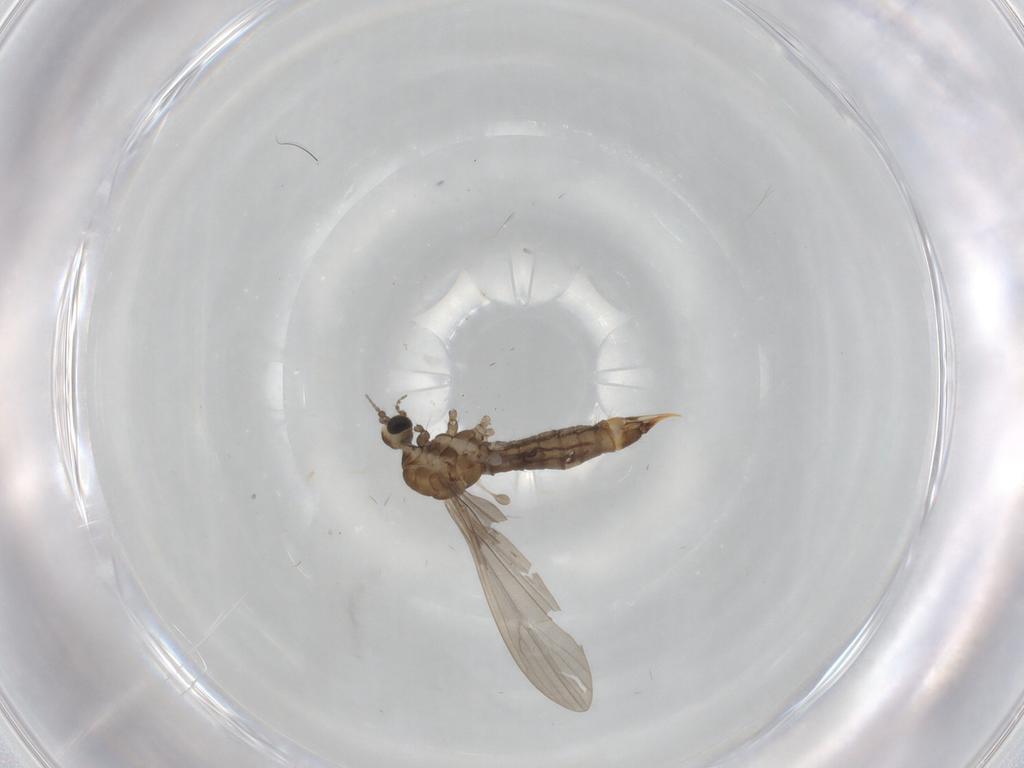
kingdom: Animalia
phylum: Arthropoda
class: Insecta
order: Diptera
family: Limoniidae
